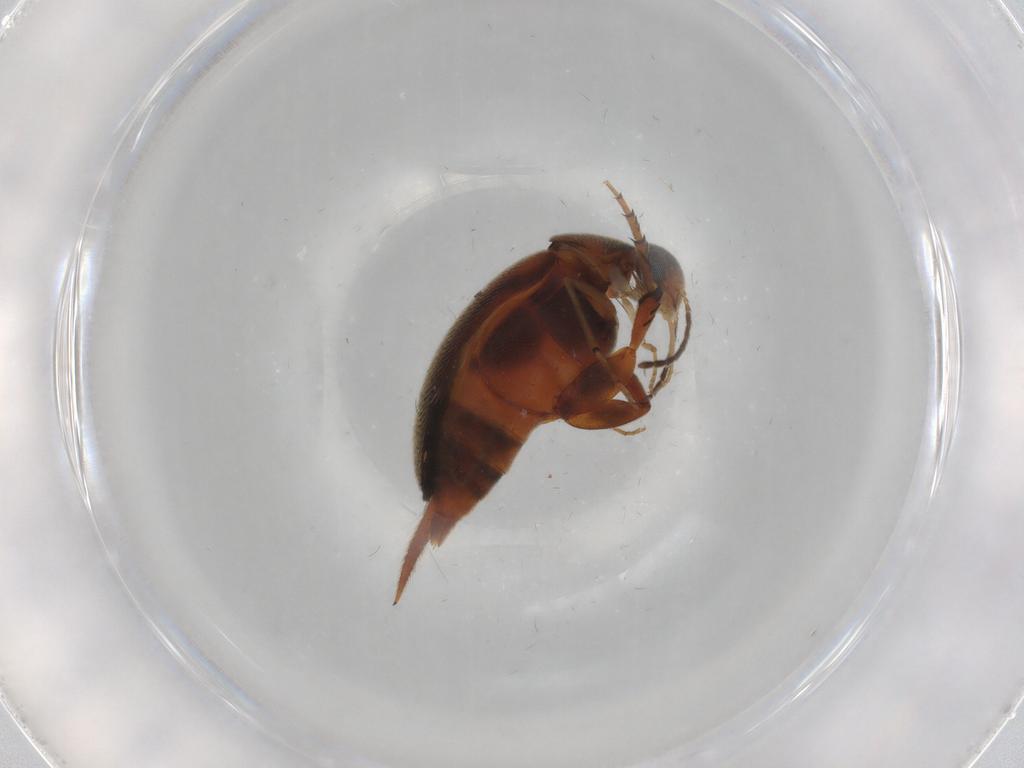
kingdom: Animalia
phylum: Arthropoda
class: Insecta
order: Coleoptera
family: Mordellidae
